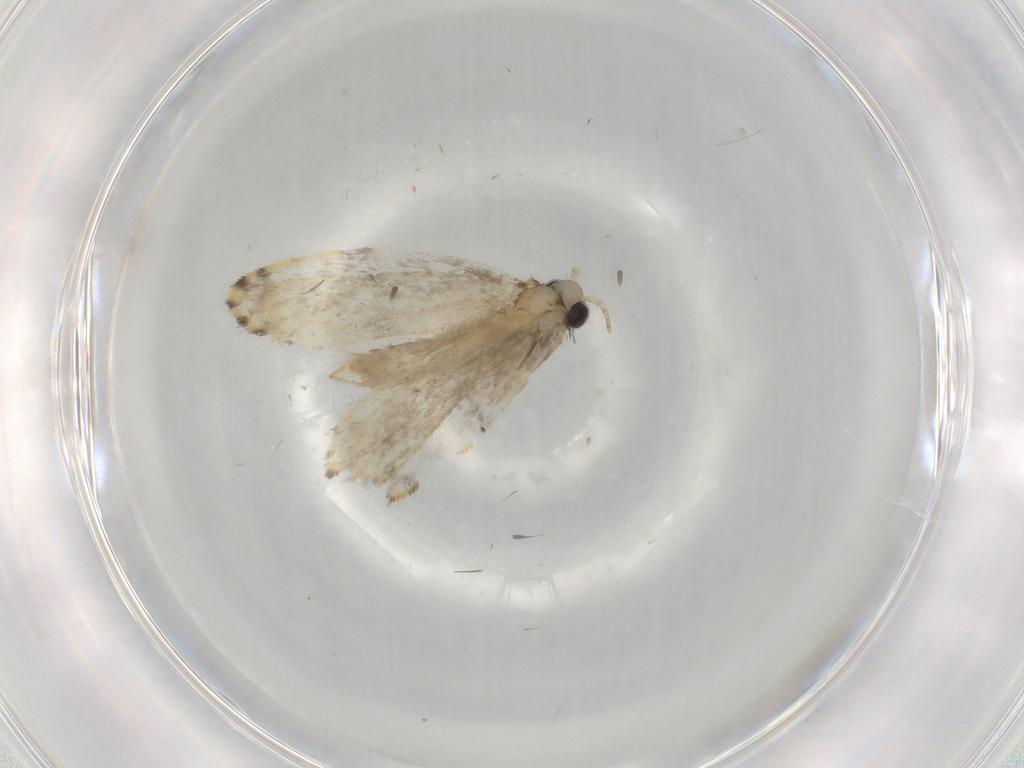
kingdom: Animalia
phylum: Arthropoda
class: Insecta
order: Lepidoptera
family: Psychidae
